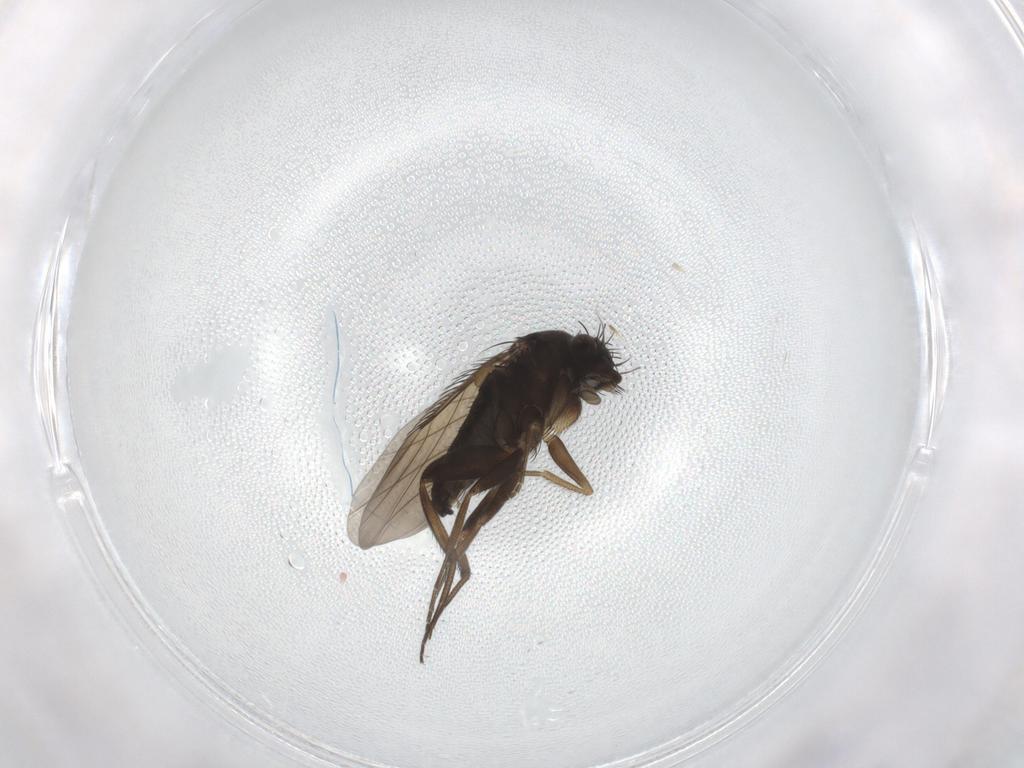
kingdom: Animalia
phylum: Arthropoda
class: Insecta
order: Diptera
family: Phoridae
